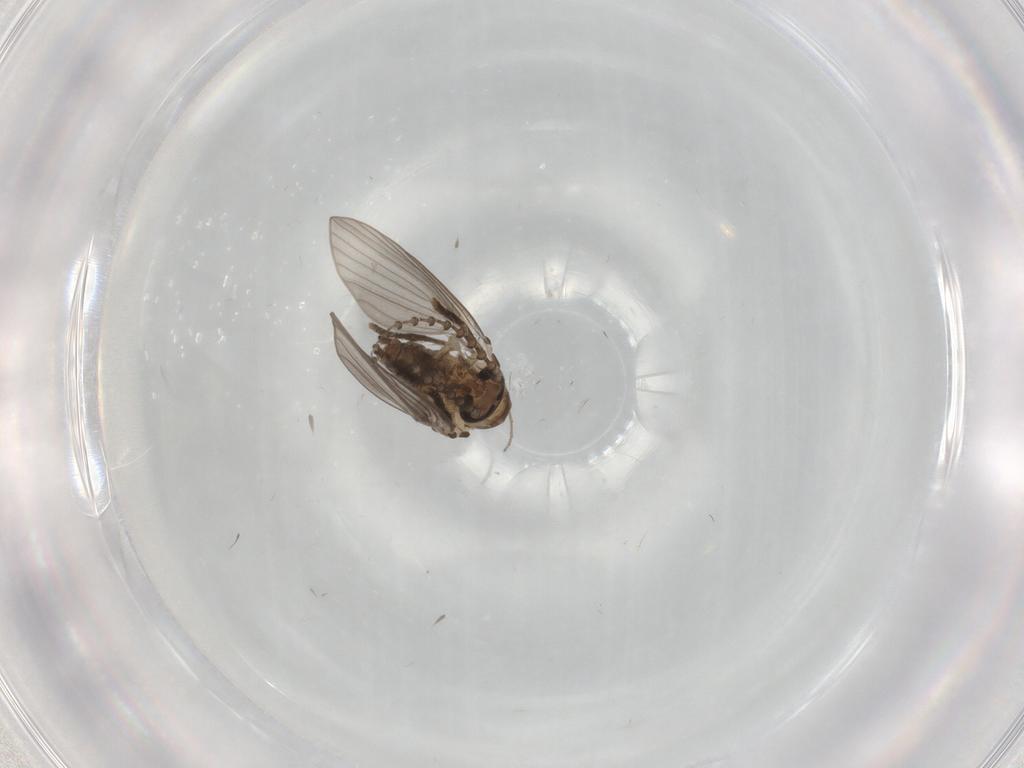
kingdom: Animalia
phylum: Arthropoda
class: Insecta
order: Diptera
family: Psychodidae
